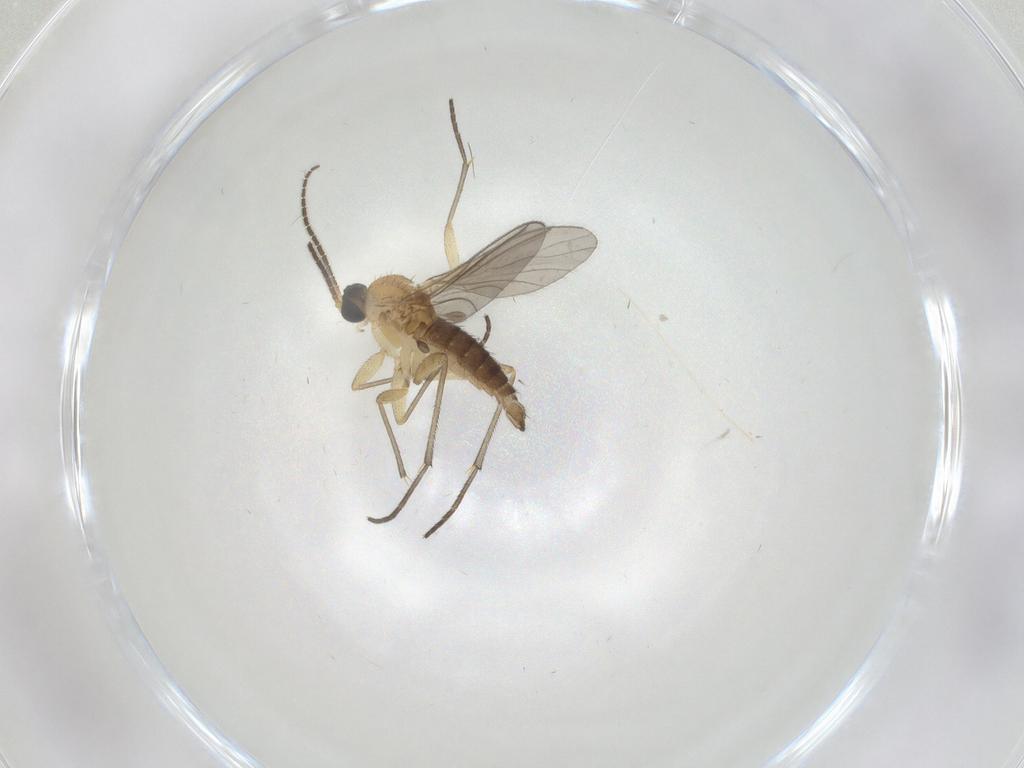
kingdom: Animalia
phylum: Arthropoda
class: Insecta
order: Diptera
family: Sciaridae
